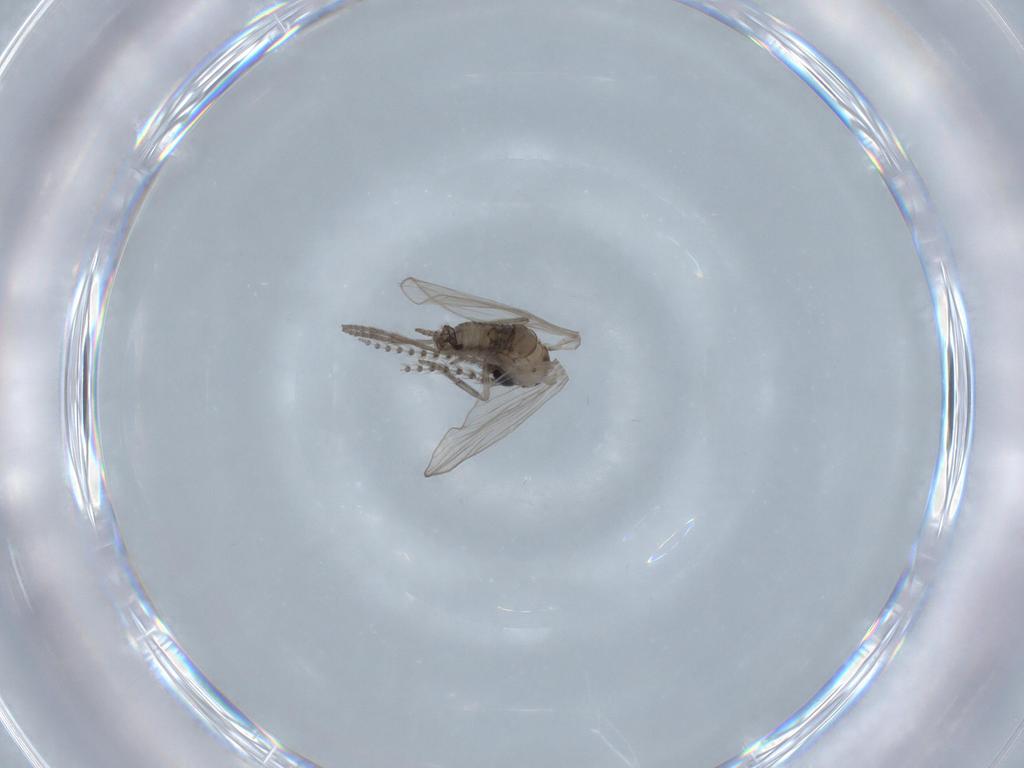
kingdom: Animalia
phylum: Arthropoda
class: Insecta
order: Diptera
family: Psychodidae
